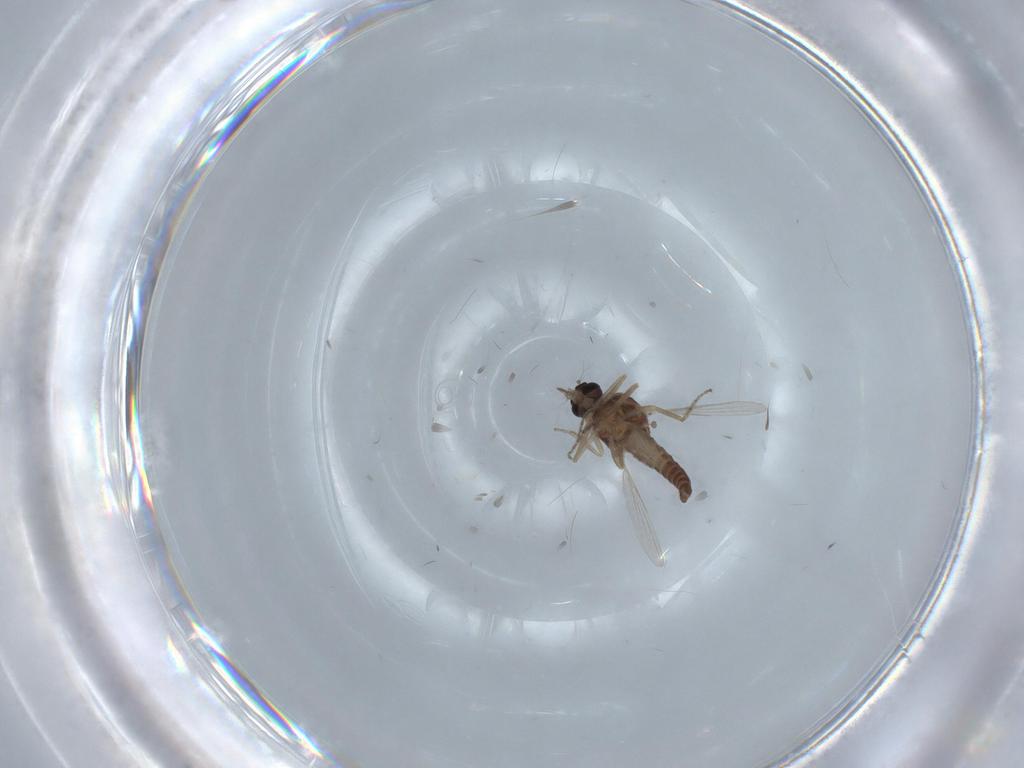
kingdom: Animalia
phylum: Arthropoda
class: Insecta
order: Diptera
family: Ceratopogonidae
